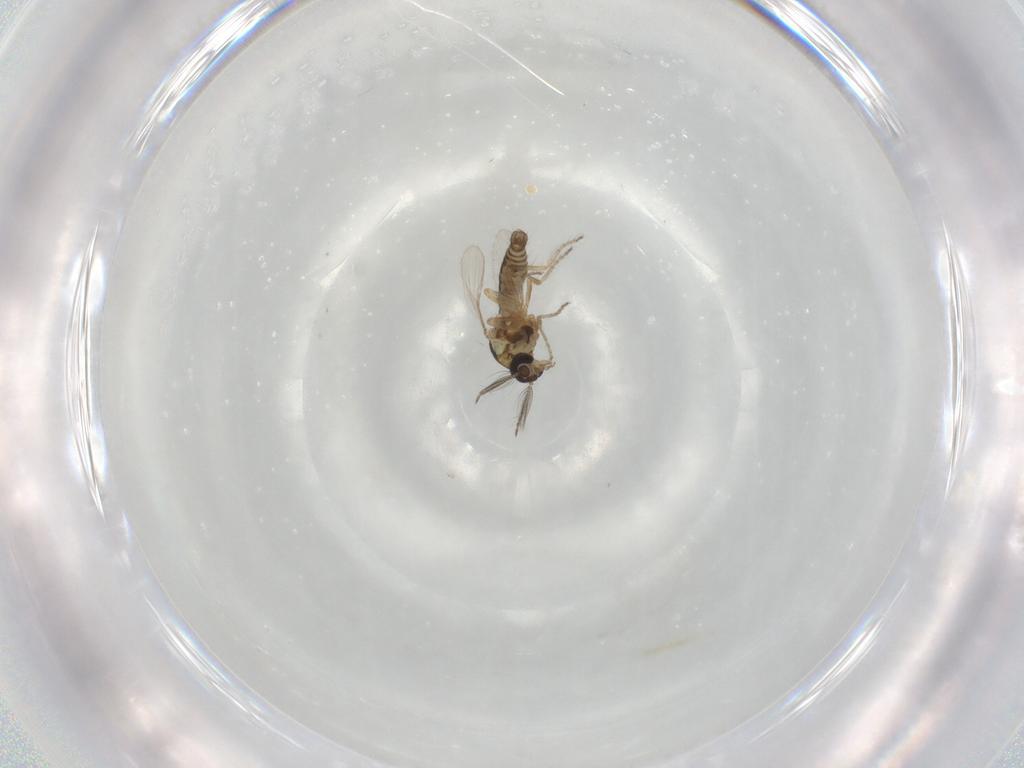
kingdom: Animalia
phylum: Arthropoda
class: Insecta
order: Diptera
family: Ceratopogonidae
